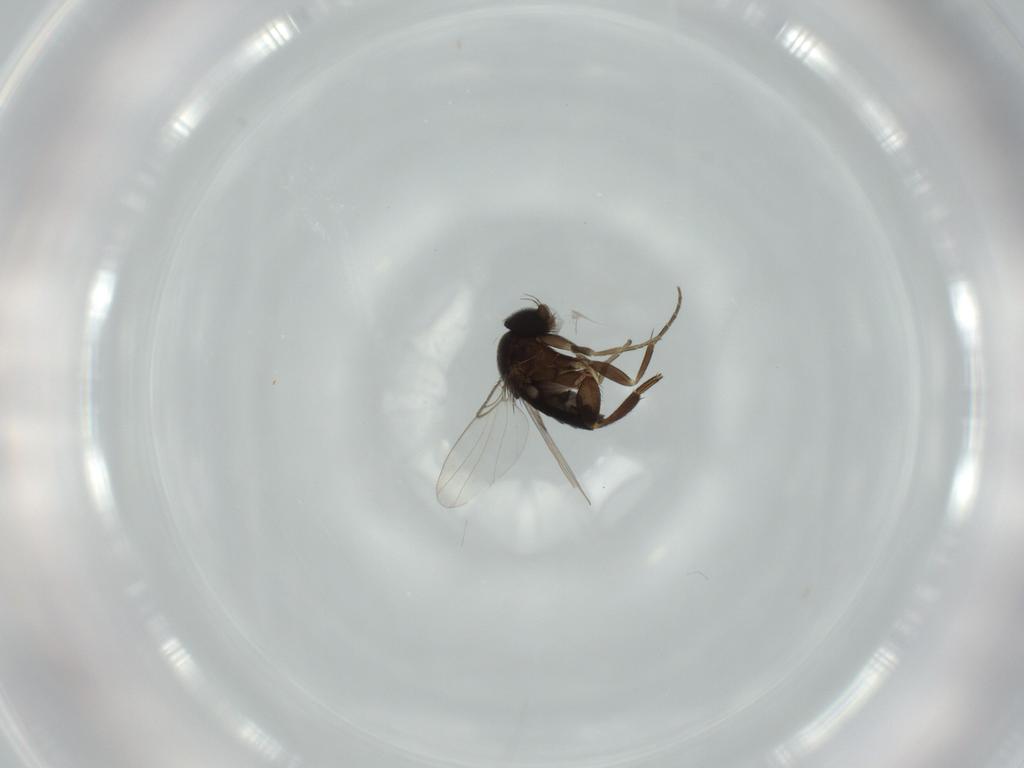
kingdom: Animalia
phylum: Arthropoda
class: Insecta
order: Diptera
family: Phoridae
